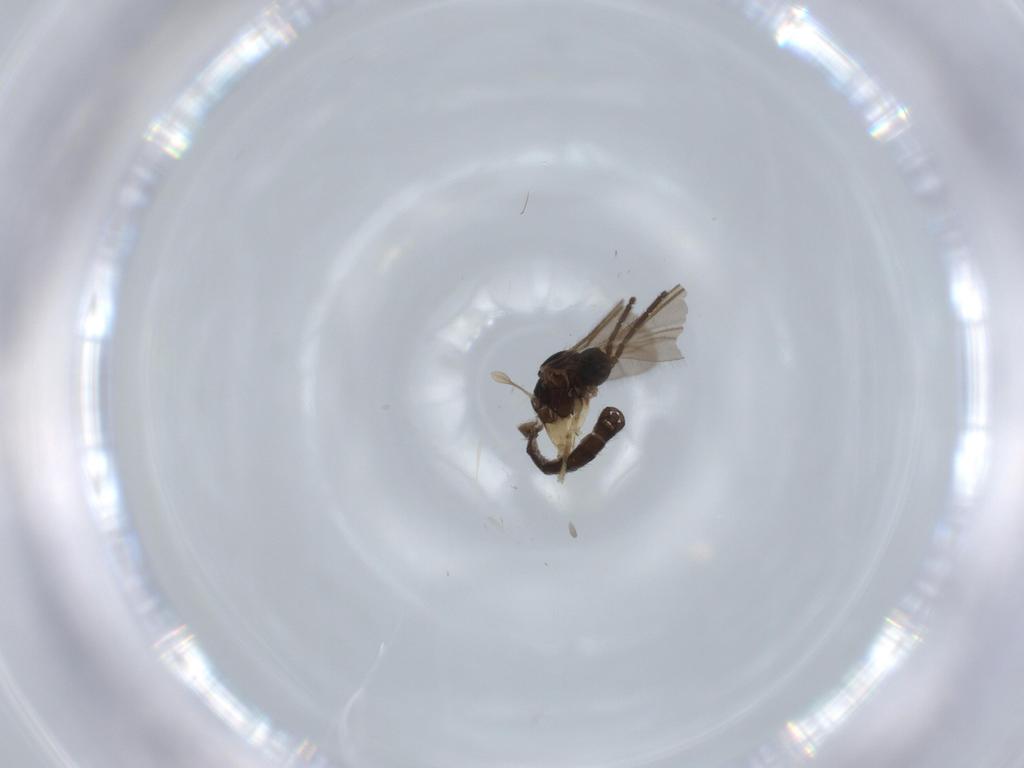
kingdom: Animalia
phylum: Arthropoda
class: Insecta
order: Diptera
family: Sciaridae
